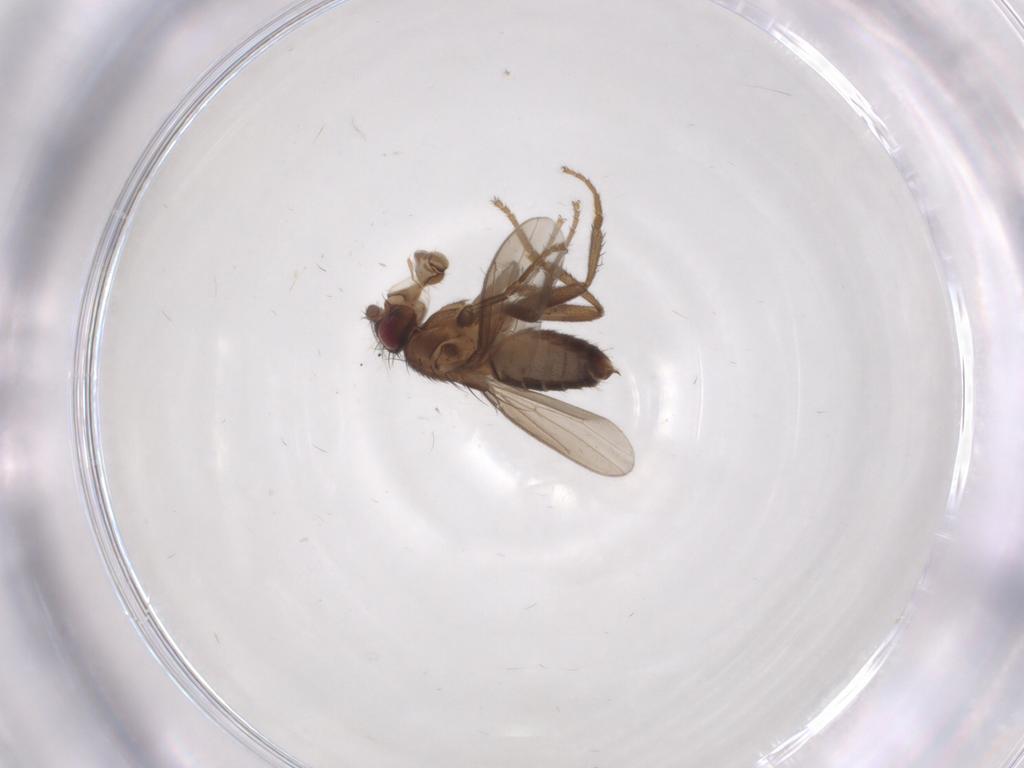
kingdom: Animalia
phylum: Arthropoda
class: Insecta
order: Diptera
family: Sphaeroceridae
